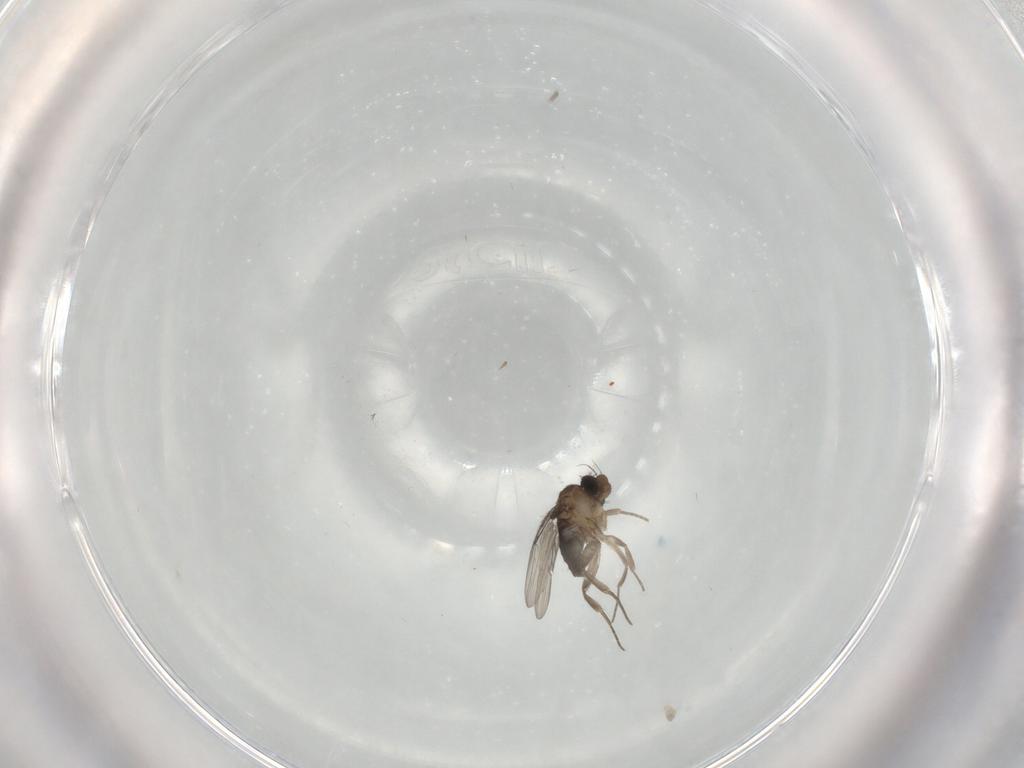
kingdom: Animalia
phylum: Arthropoda
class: Insecta
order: Diptera
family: Phoridae
